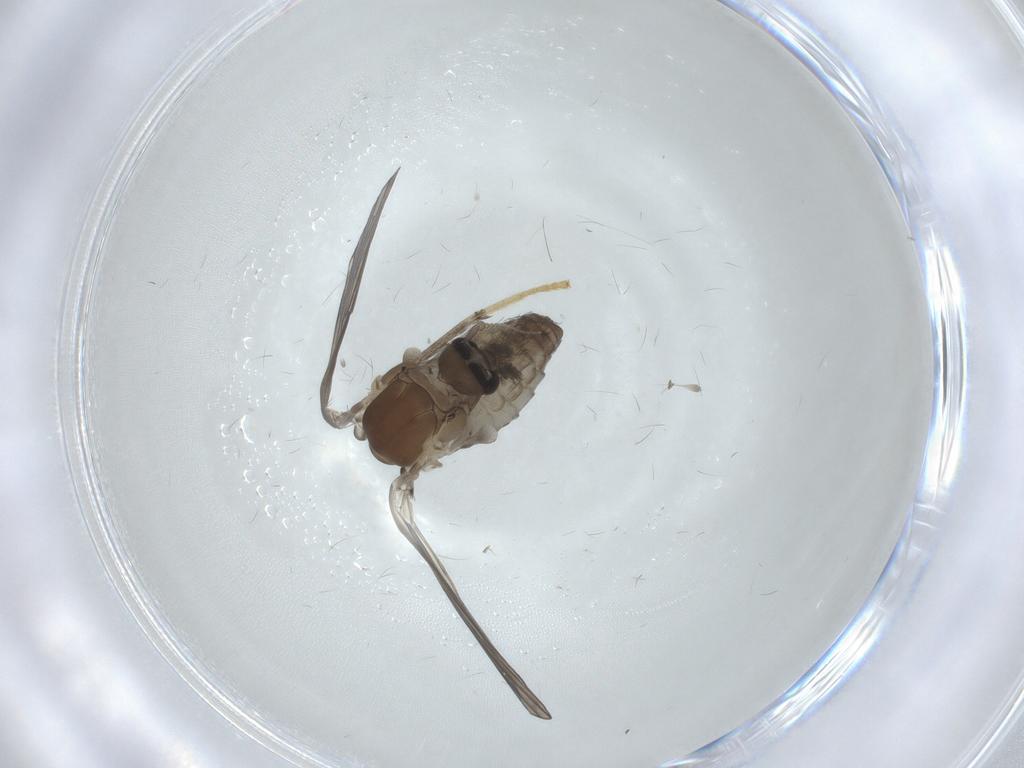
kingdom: Animalia
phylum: Arthropoda
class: Insecta
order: Diptera
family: Psychodidae
